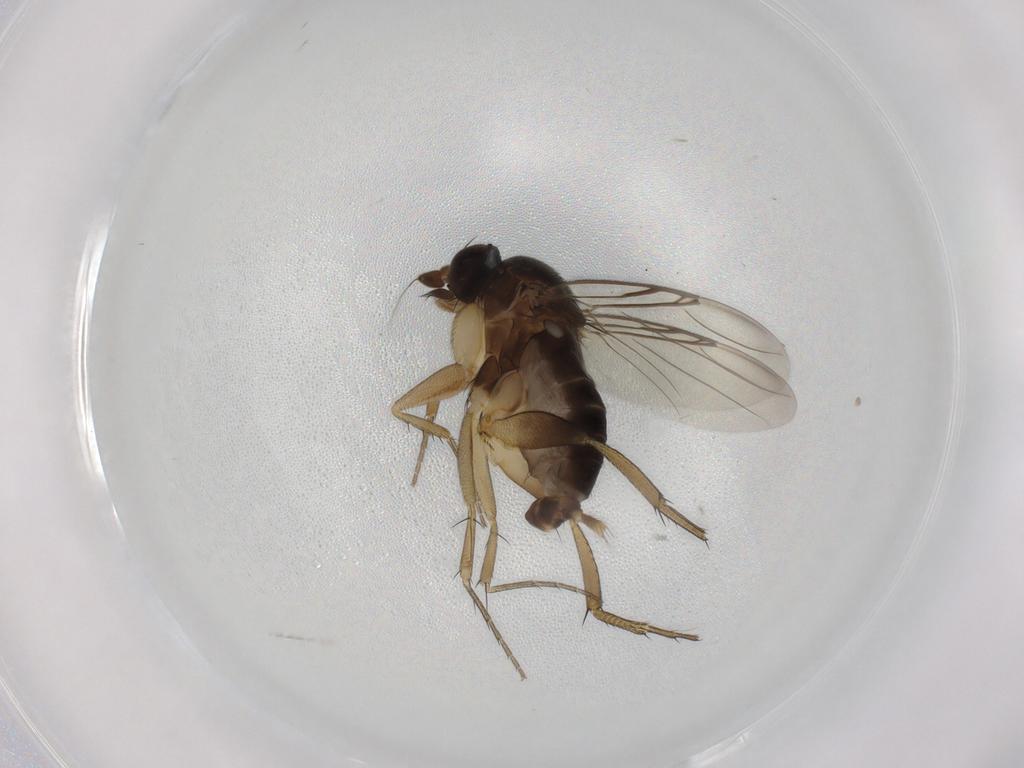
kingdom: Animalia
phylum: Arthropoda
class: Insecta
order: Diptera
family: Phoridae
